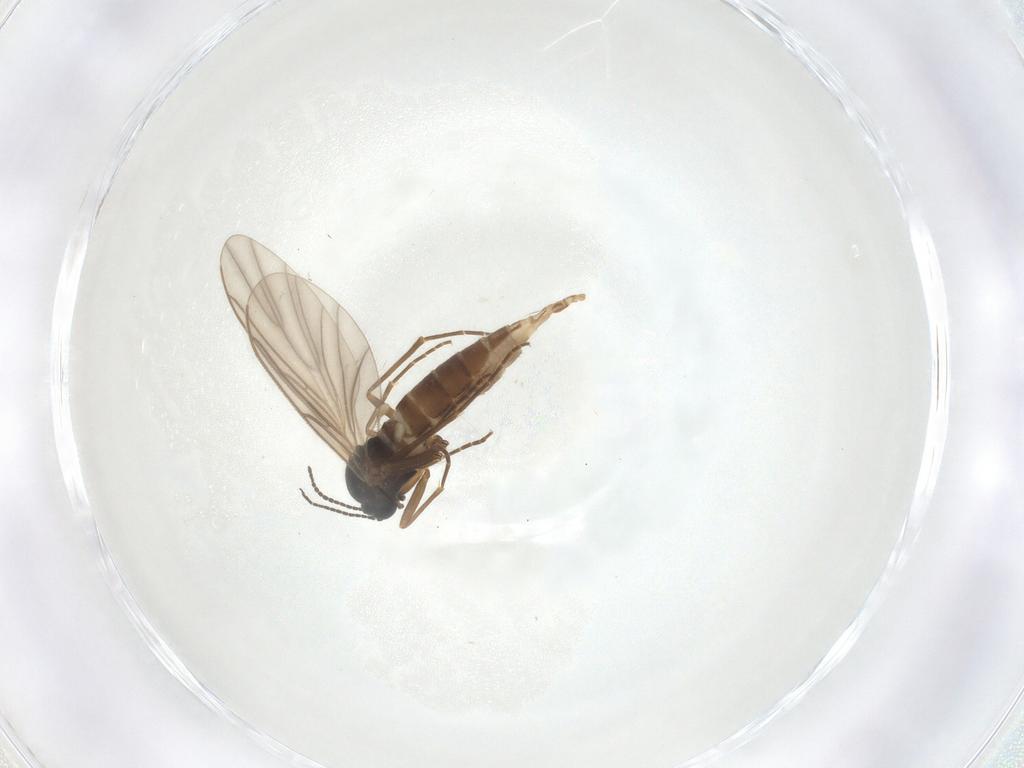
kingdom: Animalia
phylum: Arthropoda
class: Insecta
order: Diptera
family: Sciaridae
